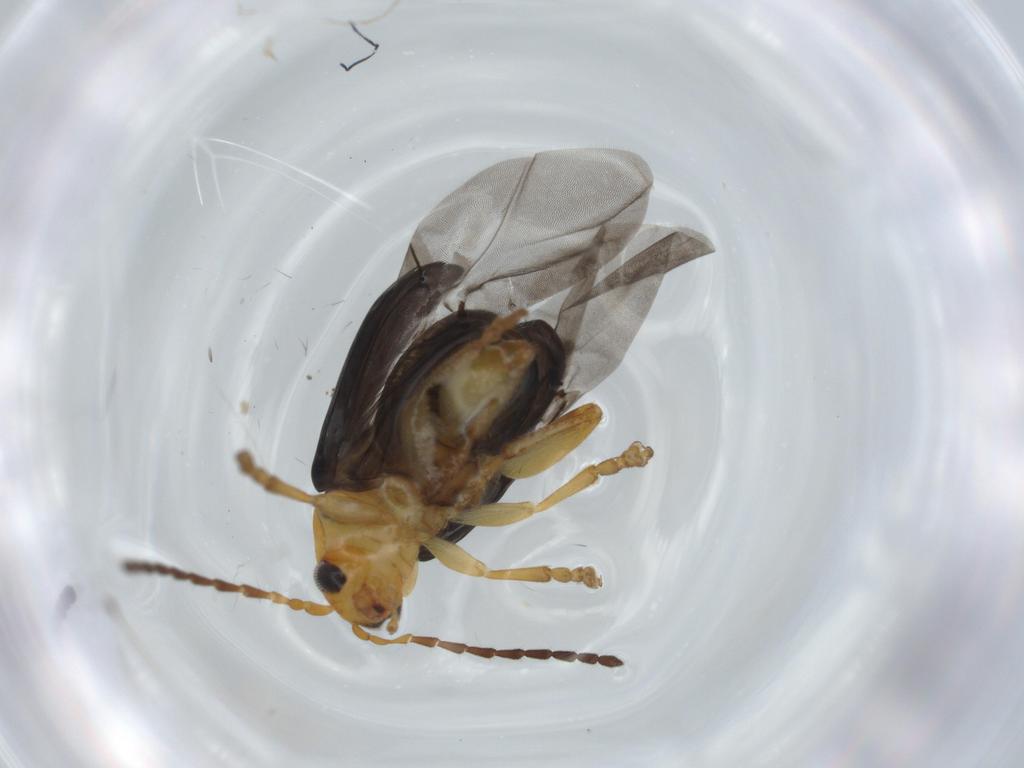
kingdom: Animalia
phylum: Arthropoda
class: Insecta
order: Coleoptera
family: Chrysomelidae
